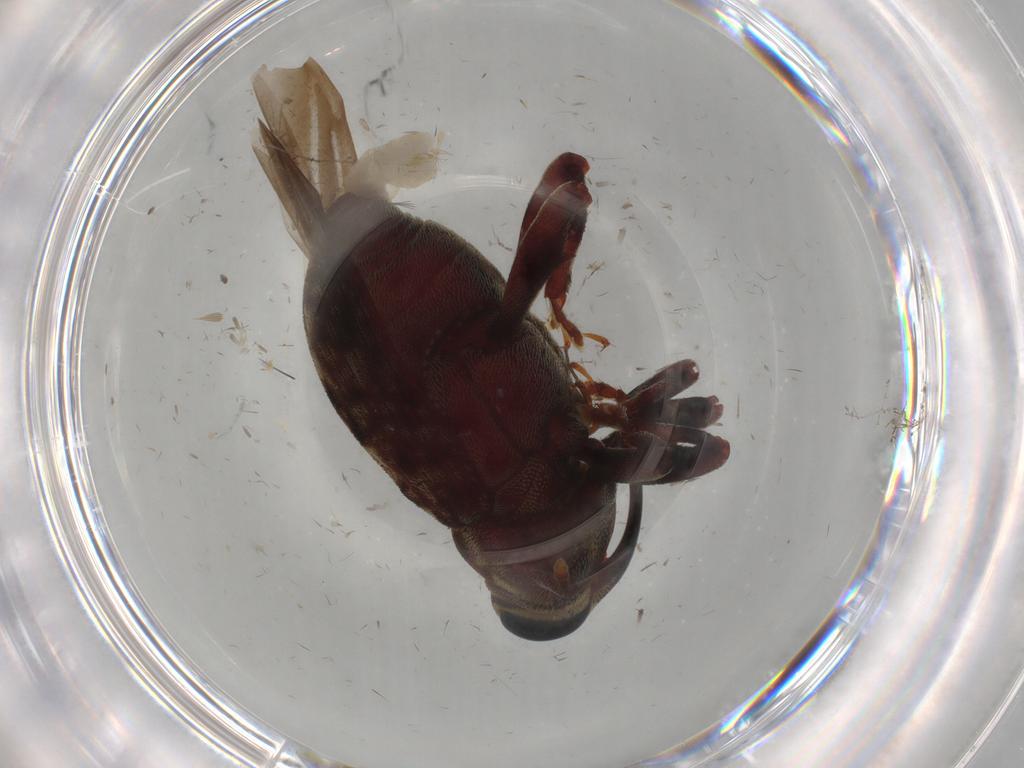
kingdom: Animalia
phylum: Arthropoda
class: Insecta
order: Coleoptera
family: Curculionidae
